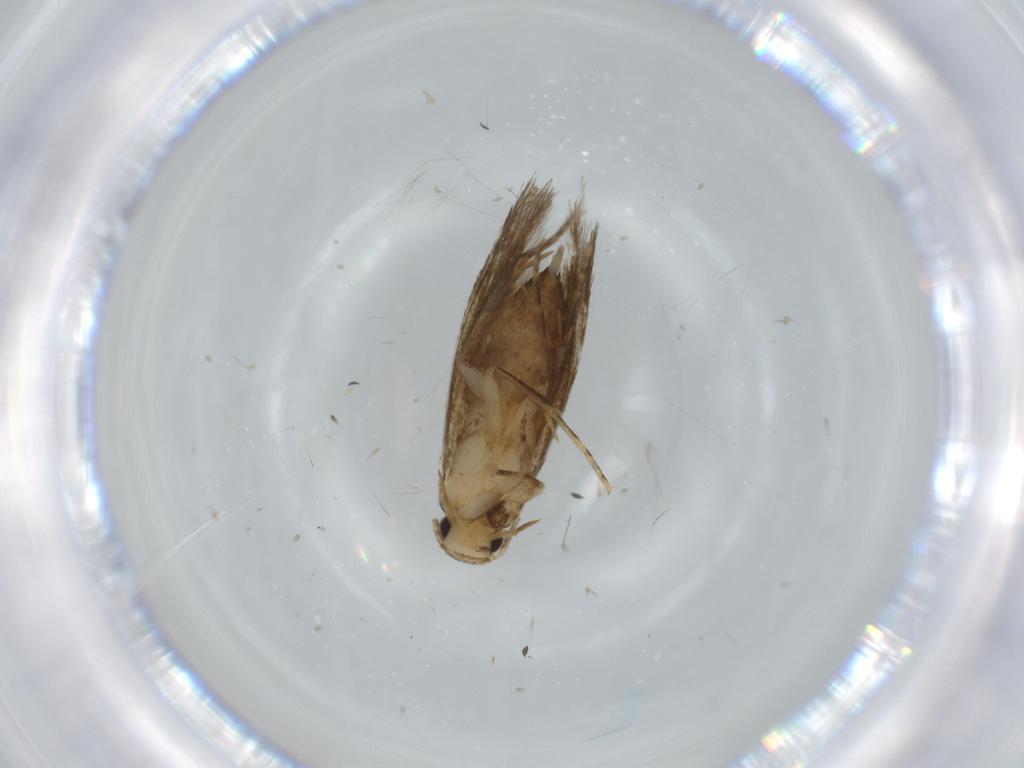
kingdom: Animalia
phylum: Arthropoda
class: Insecta
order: Lepidoptera
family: Tineidae
